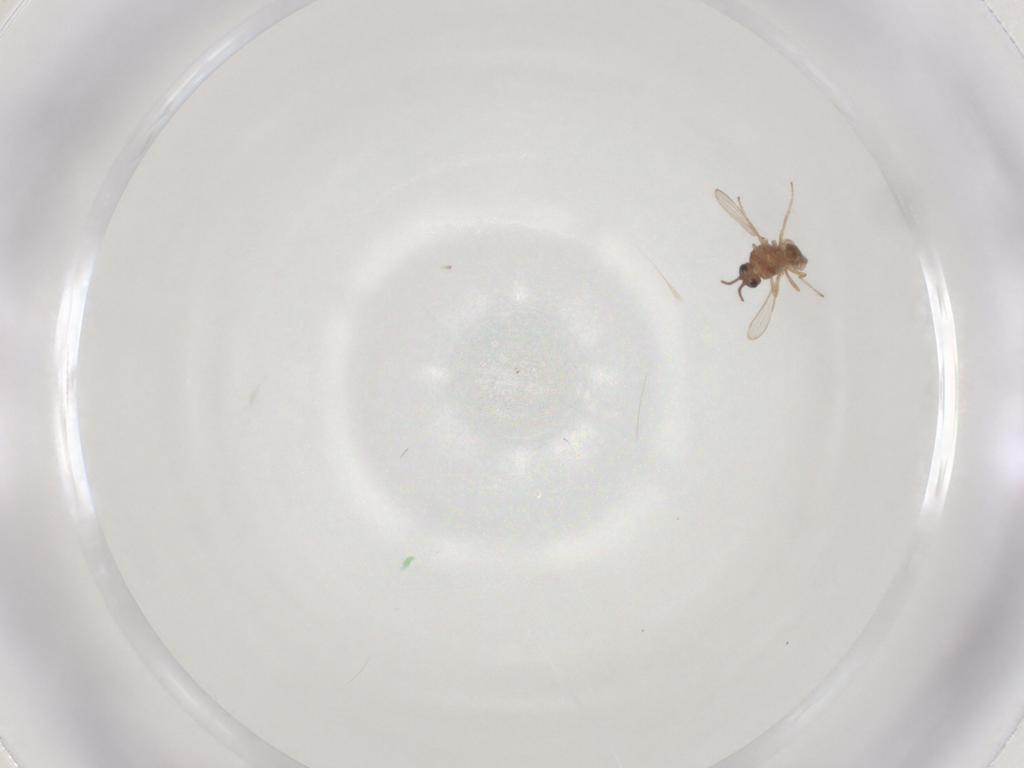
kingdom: Animalia
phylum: Arthropoda
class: Insecta
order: Diptera
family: Ceratopogonidae
